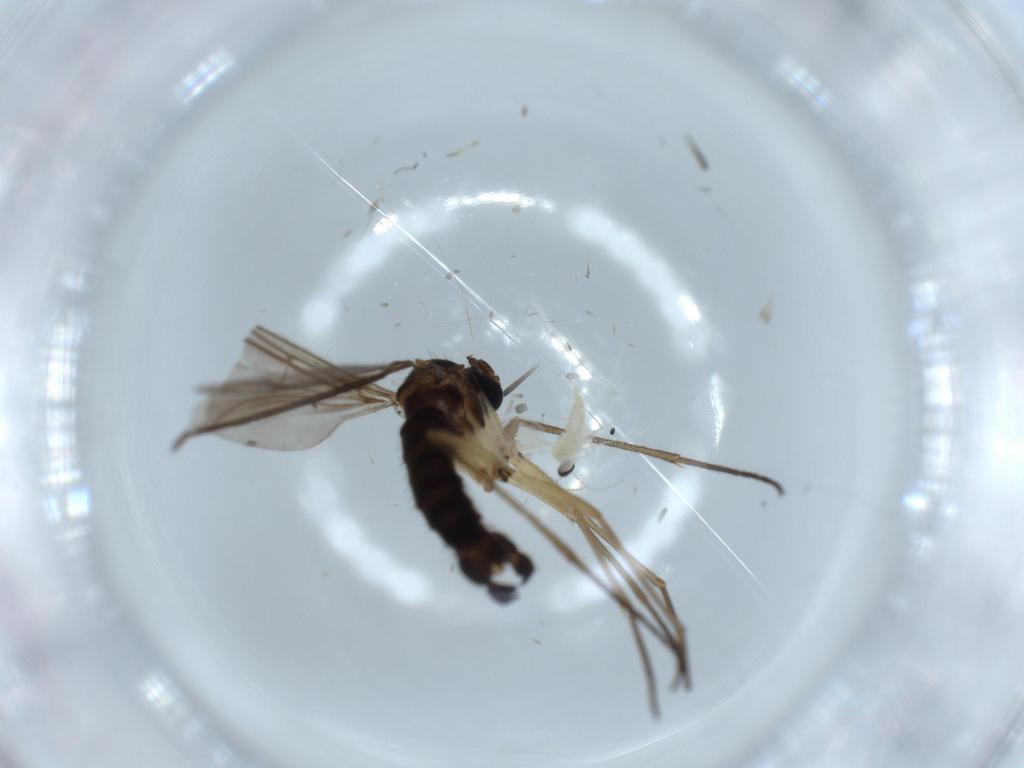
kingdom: Animalia
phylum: Arthropoda
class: Insecta
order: Diptera
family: Sciaridae
